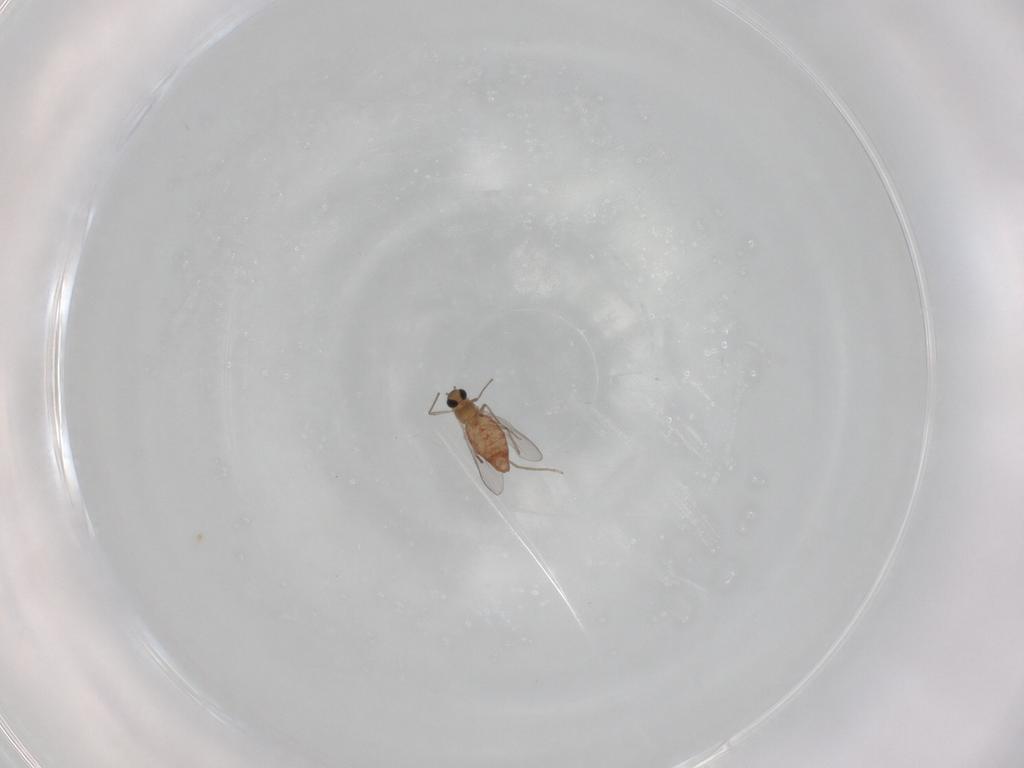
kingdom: Animalia
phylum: Arthropoda
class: Insecta
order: Diptera
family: Chironomidae
